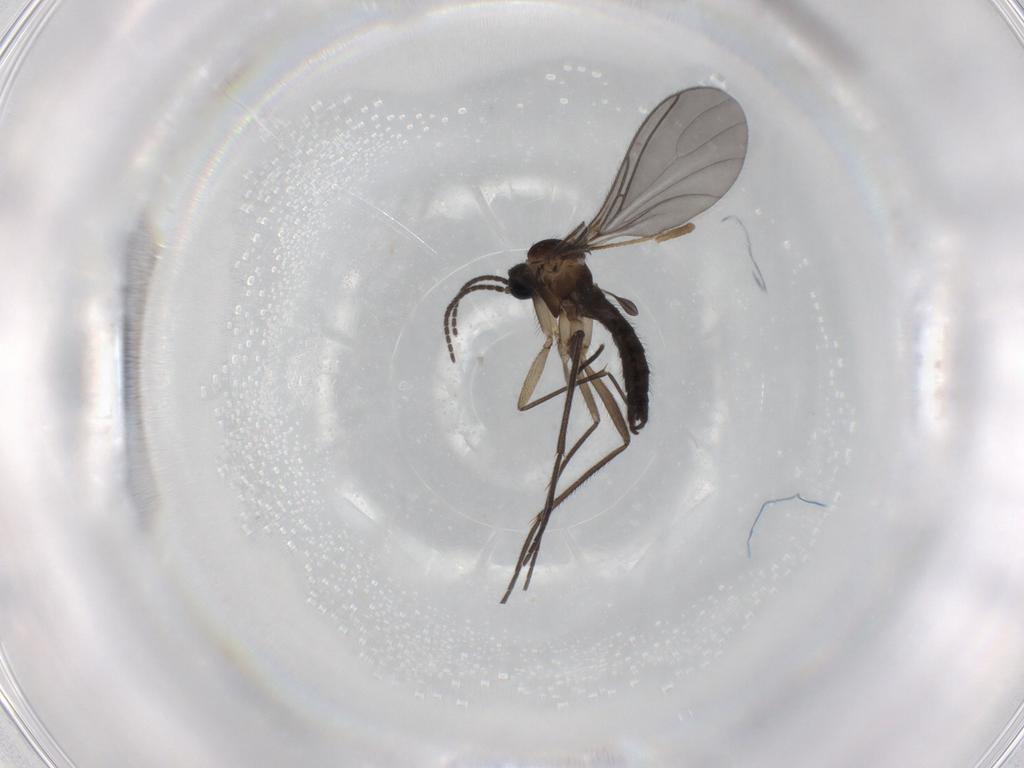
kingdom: Animalia
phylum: Arthropoda
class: Insecta
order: Diptera
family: Sciaridae
